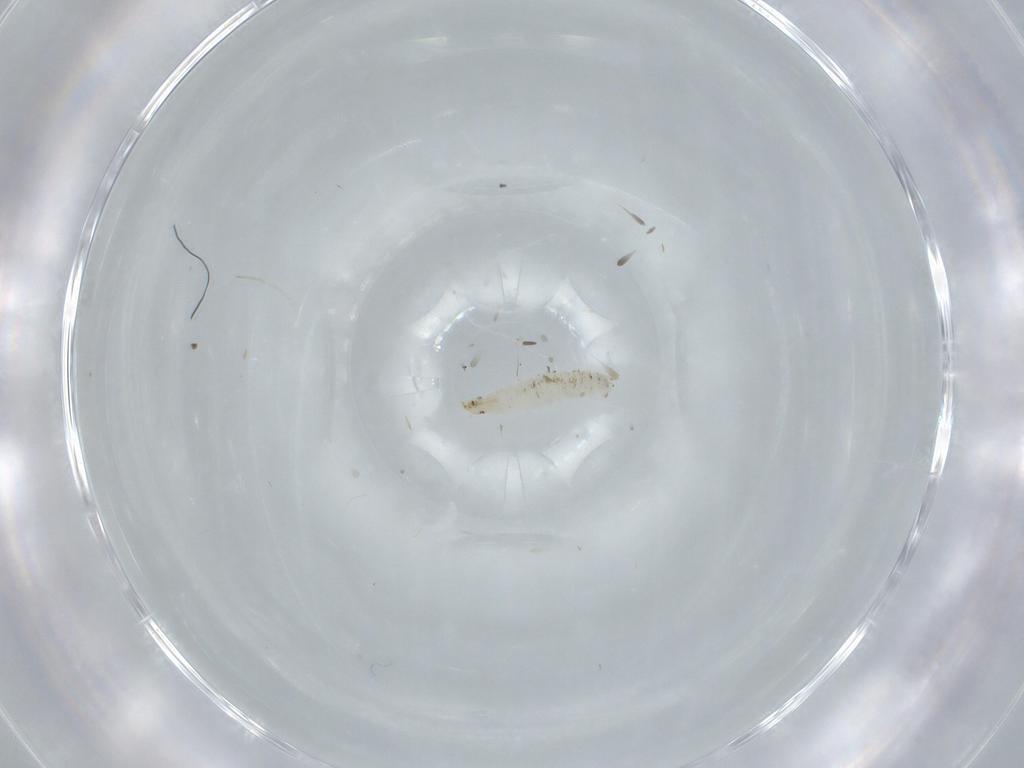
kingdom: Animalia
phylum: Arthropoda
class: Insecta
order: Diptera
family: Stratiomyidae
